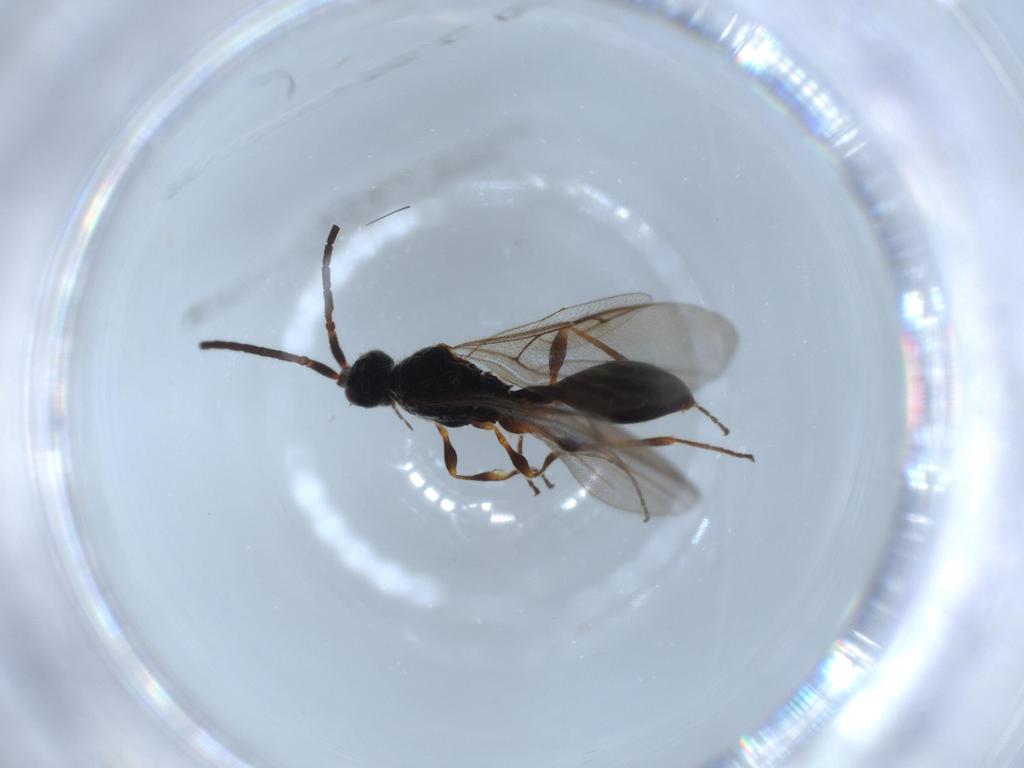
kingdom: Animalia
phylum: Arthropoda
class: Insecta
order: Hymenoptera
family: Diapriidae
